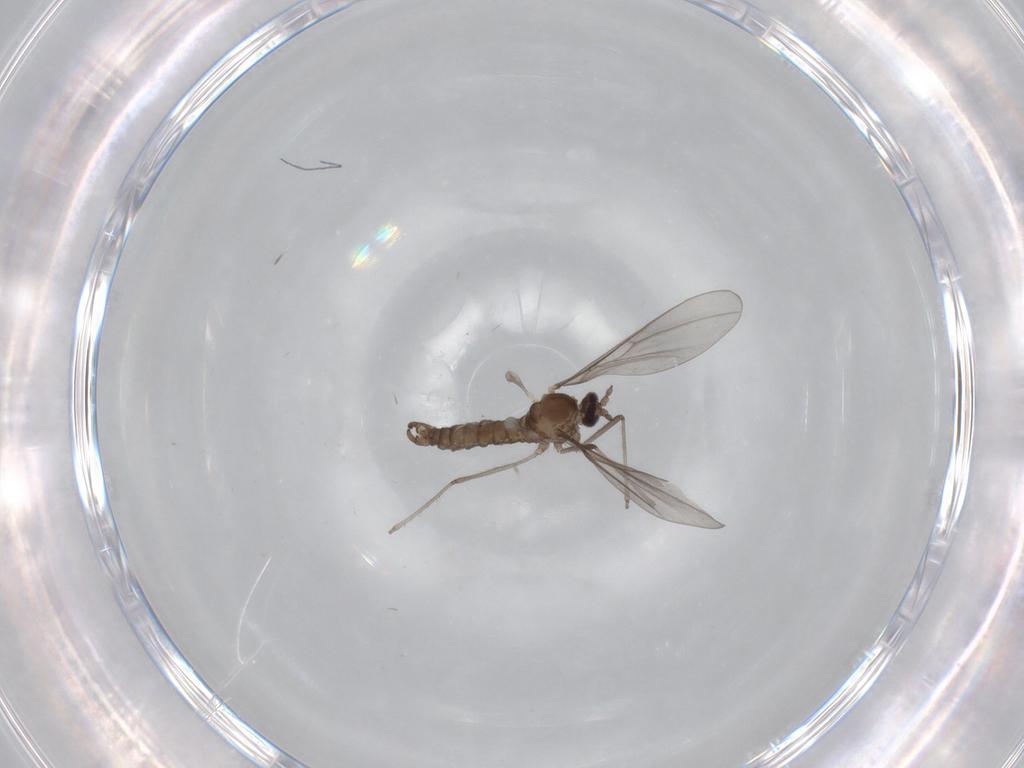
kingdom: Animalia
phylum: Arthropoda
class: Insecta
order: Diptera
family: Chironomidae
